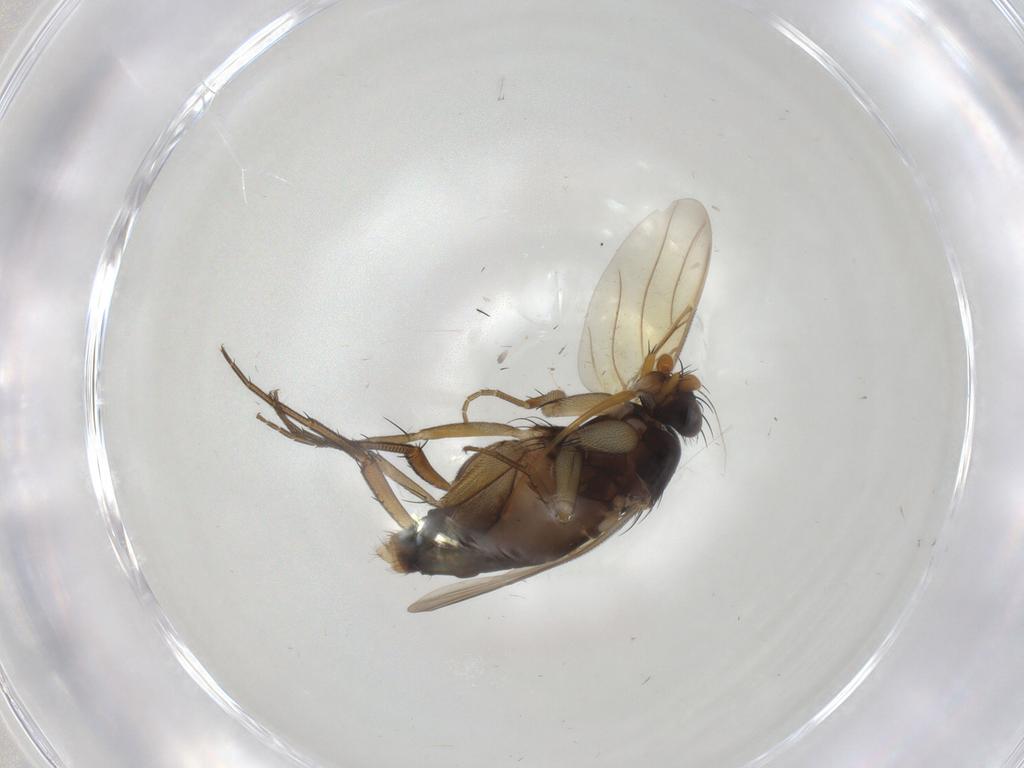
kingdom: Animalia
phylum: Arthropoda
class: Insecta
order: Diptera
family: Phoridae
